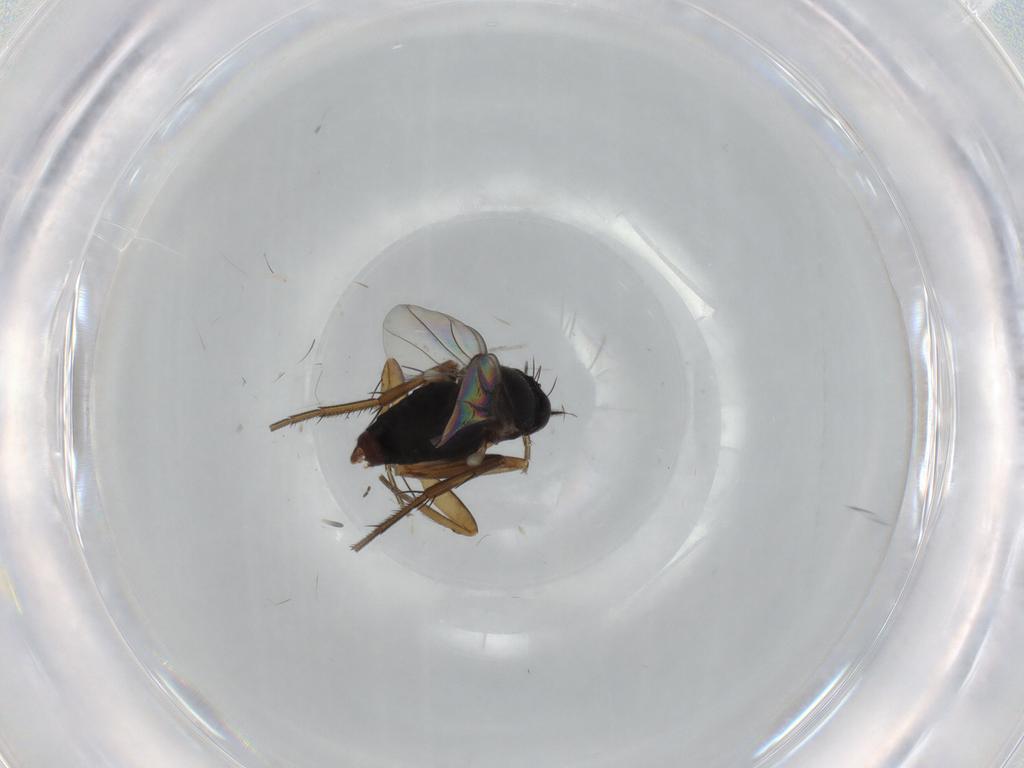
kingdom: Animalia
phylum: Arthropoda
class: Insecta
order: Diptera
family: Phoridae
